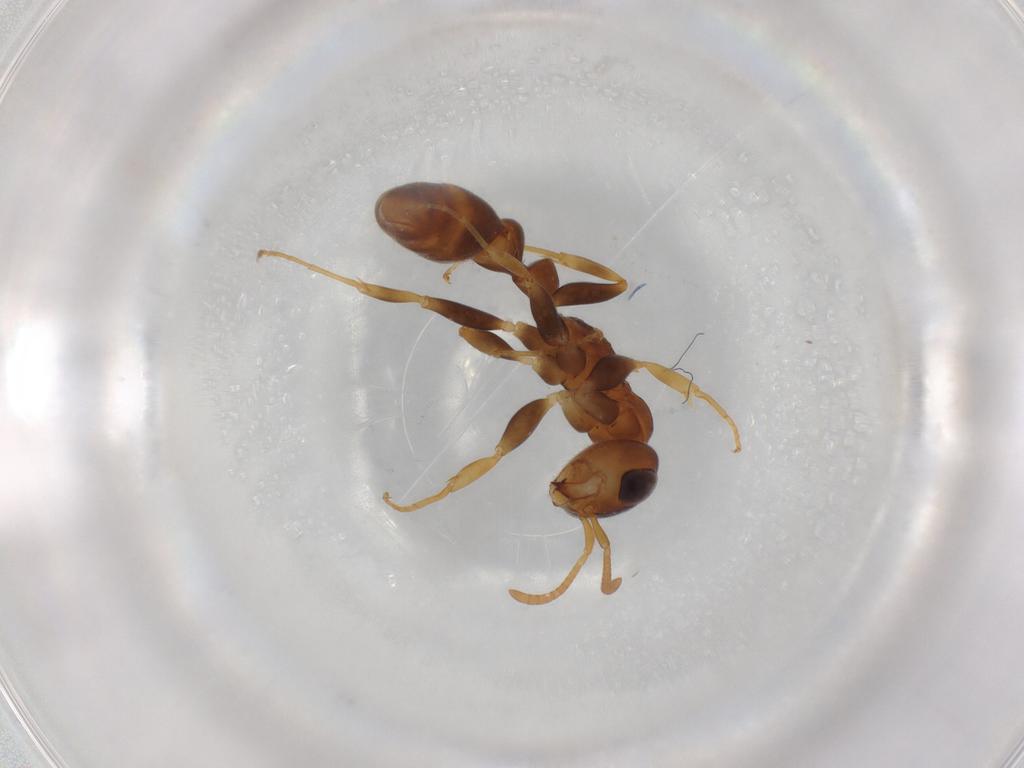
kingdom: Animalia
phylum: Arthropoda
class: Insecta
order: Hymenoptera
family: Formicidae
